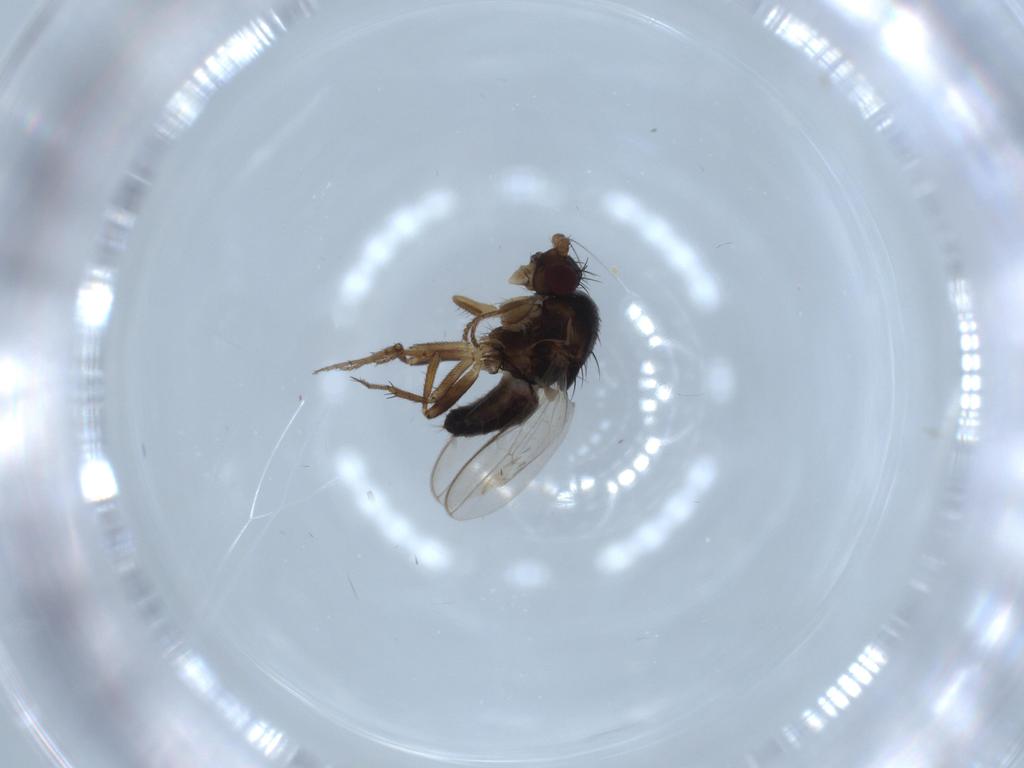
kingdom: Animalia
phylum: Arthropoda
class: Insecta
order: Diptera
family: Sphaeroceridae
